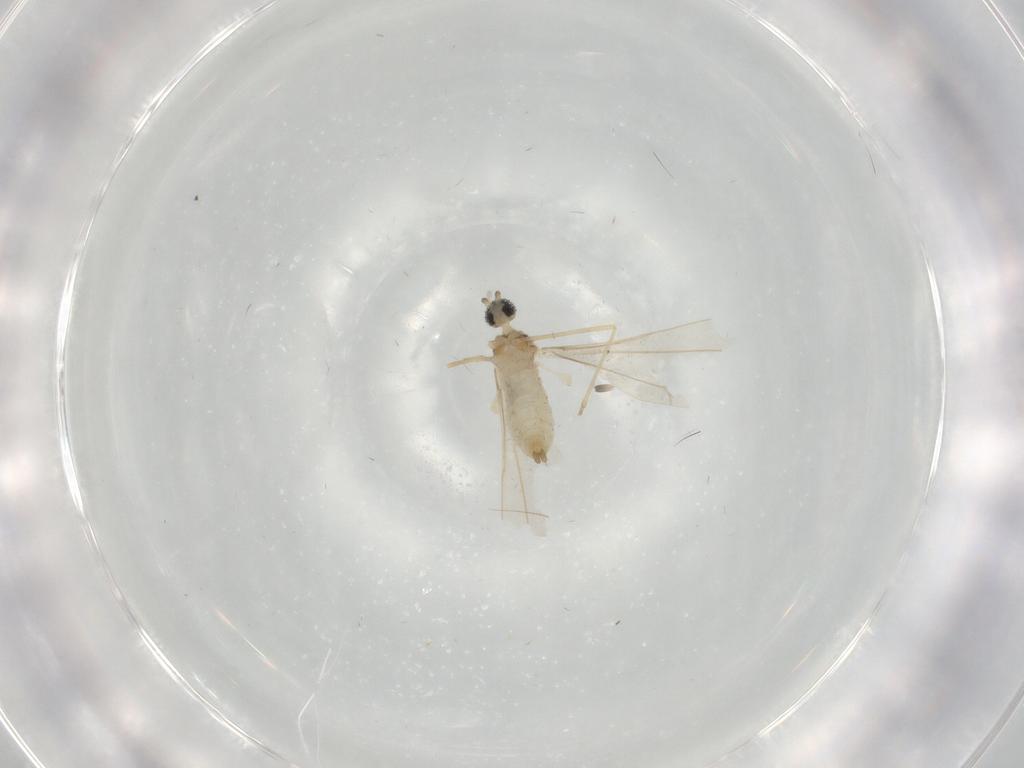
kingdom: Animalia
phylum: Arthropoda
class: Insecta
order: Diptera
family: Cecidomyiidae
